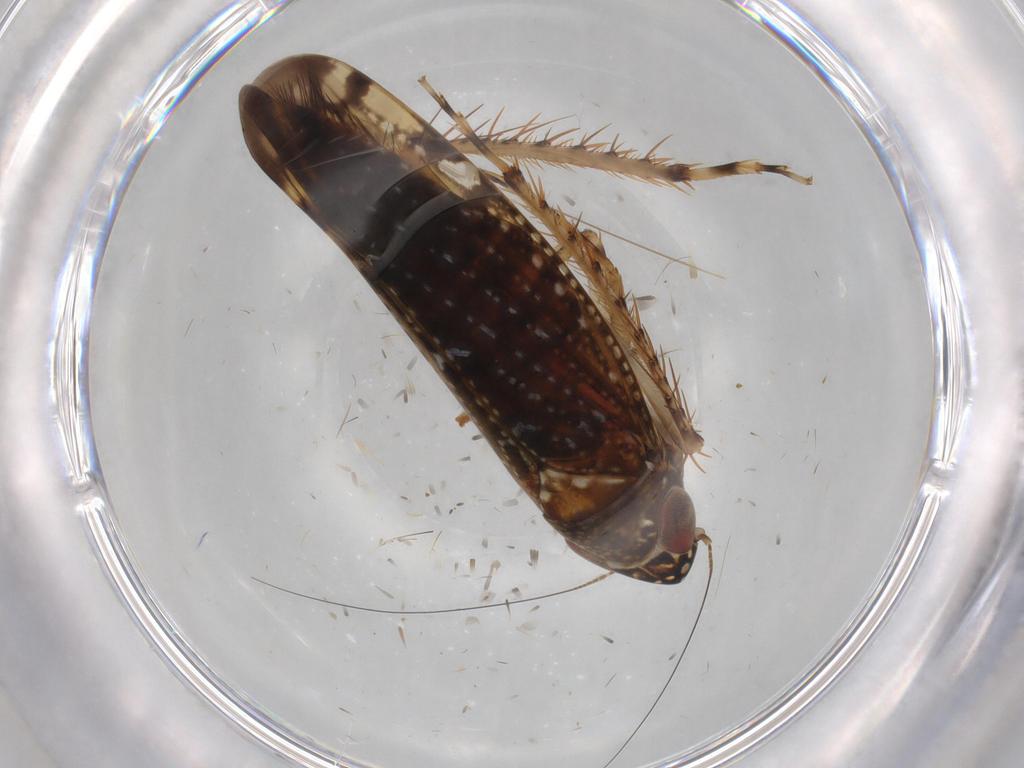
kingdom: Animalia
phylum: Arthropoda
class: Insecta
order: Hemiptera
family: Cicadellidae
